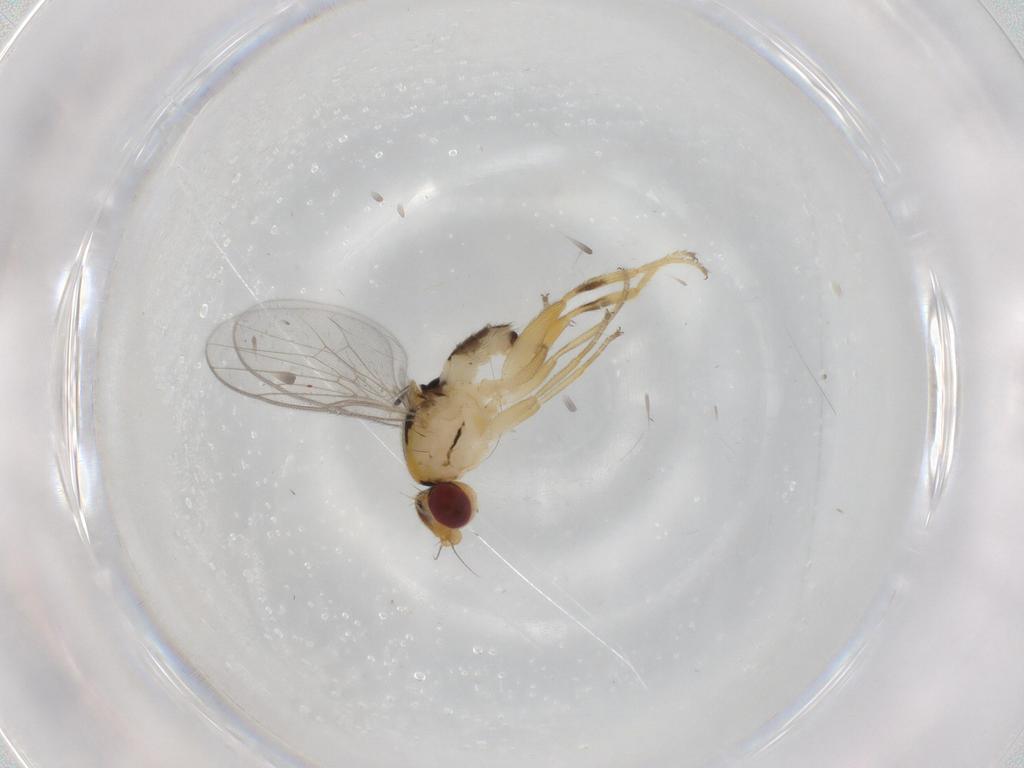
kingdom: Animalia
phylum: Arthropoda
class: Insecta
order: Diptera
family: Chloropidae
